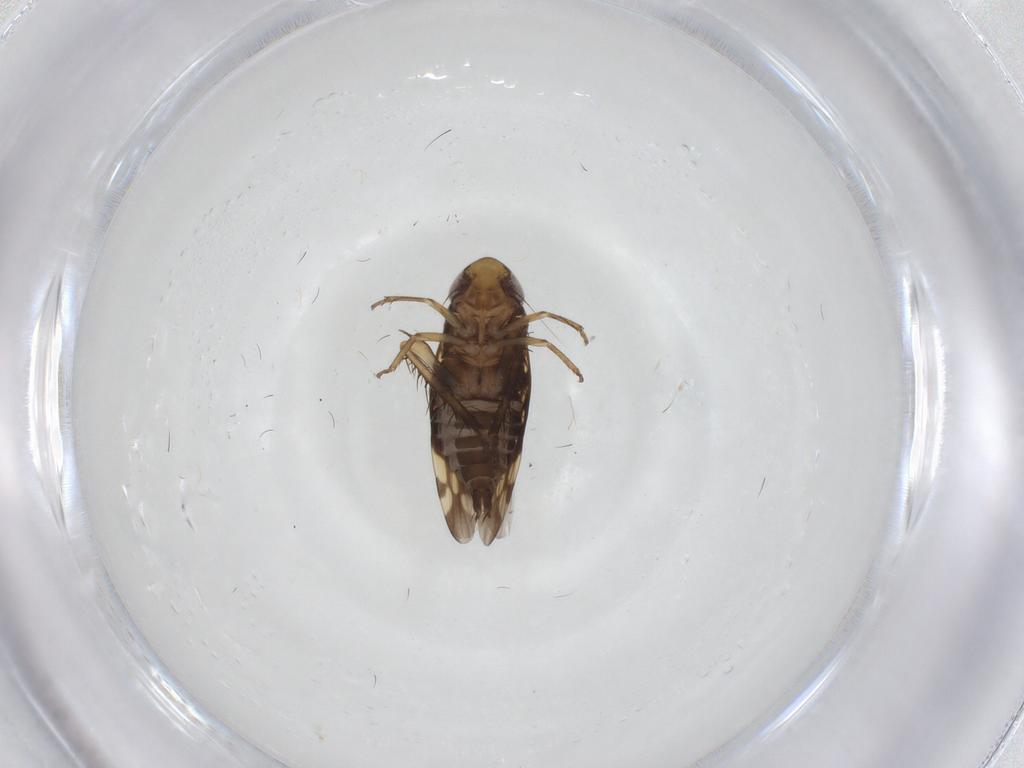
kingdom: Animalia
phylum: Arthropoda
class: Insecta
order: Hemiptera
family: Cicadellidae
